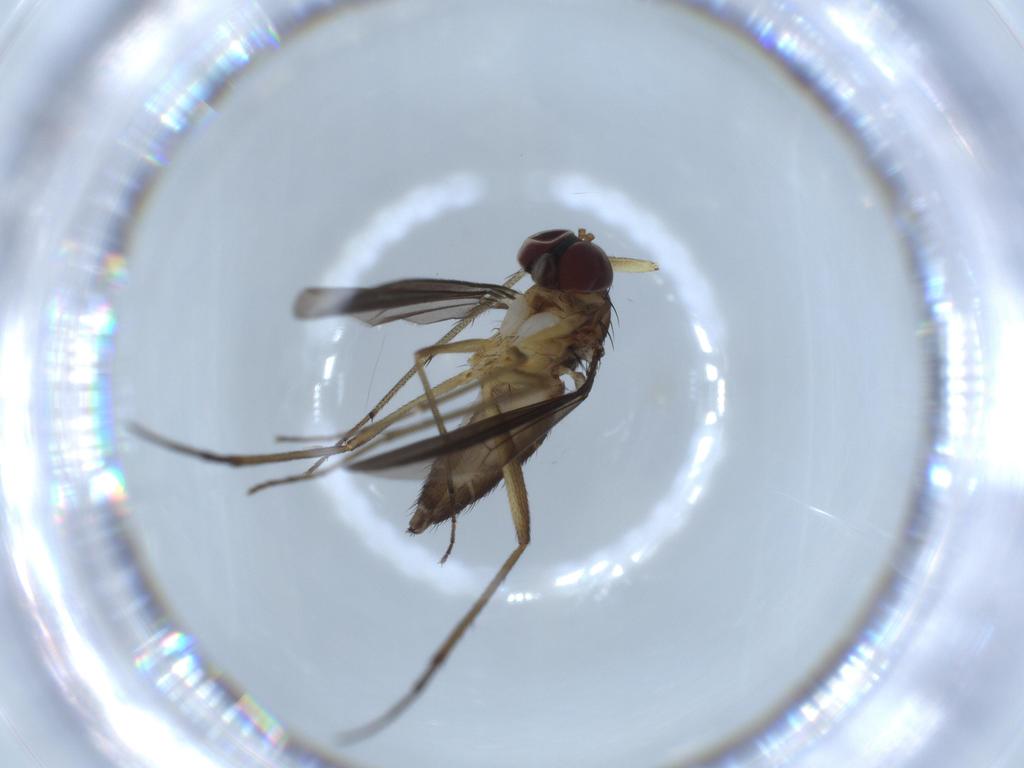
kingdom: Animalia
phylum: Arthropoda
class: Insecta
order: Diptera
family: Dolichopodidae
